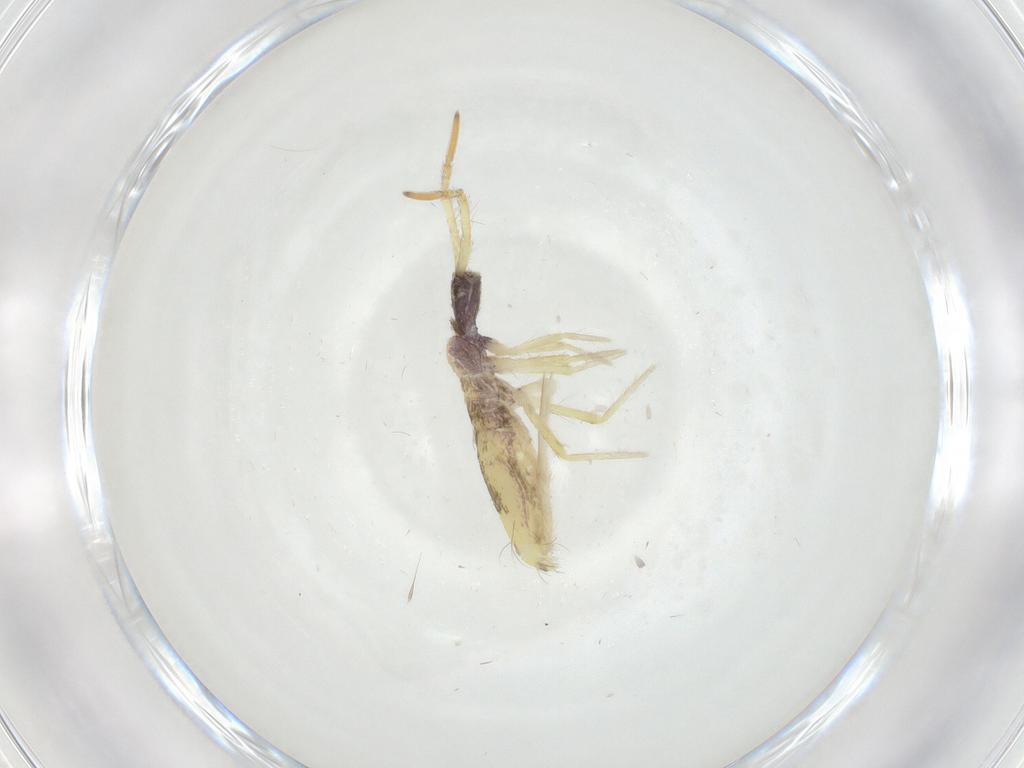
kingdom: Animalia
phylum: Arthropoda
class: Collembola
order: Entomobryomorpha
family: Entomobryidae
